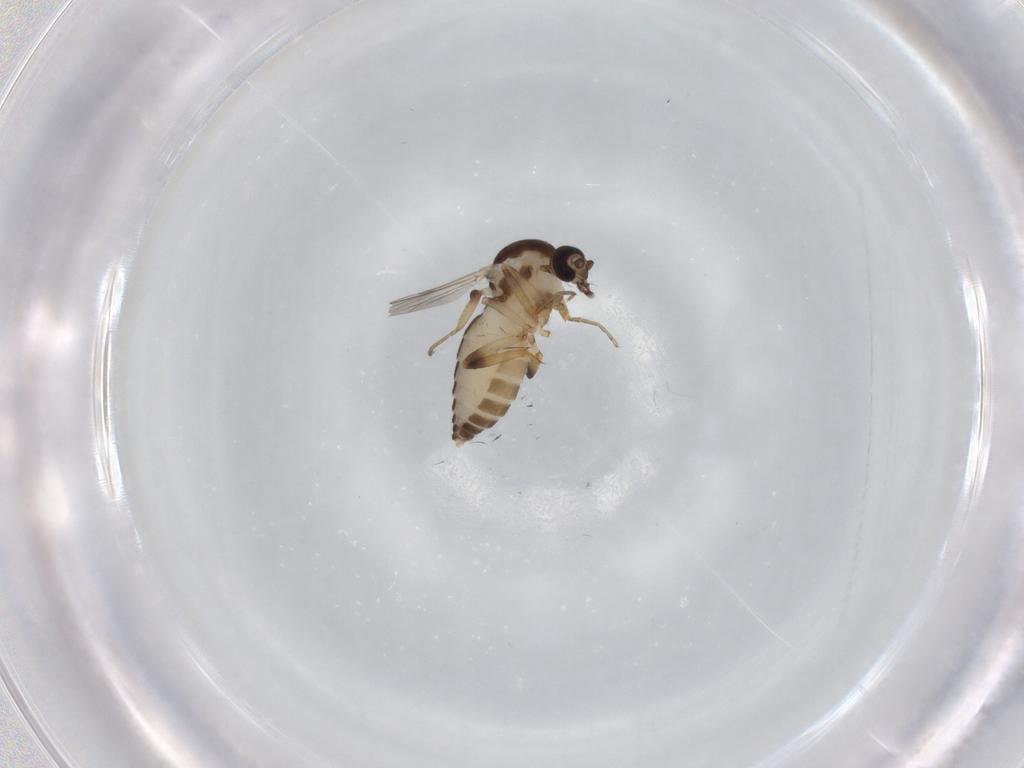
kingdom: Animalia
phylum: Arthropoda
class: Insecta
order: Diptera
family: Ceratopogonidae
